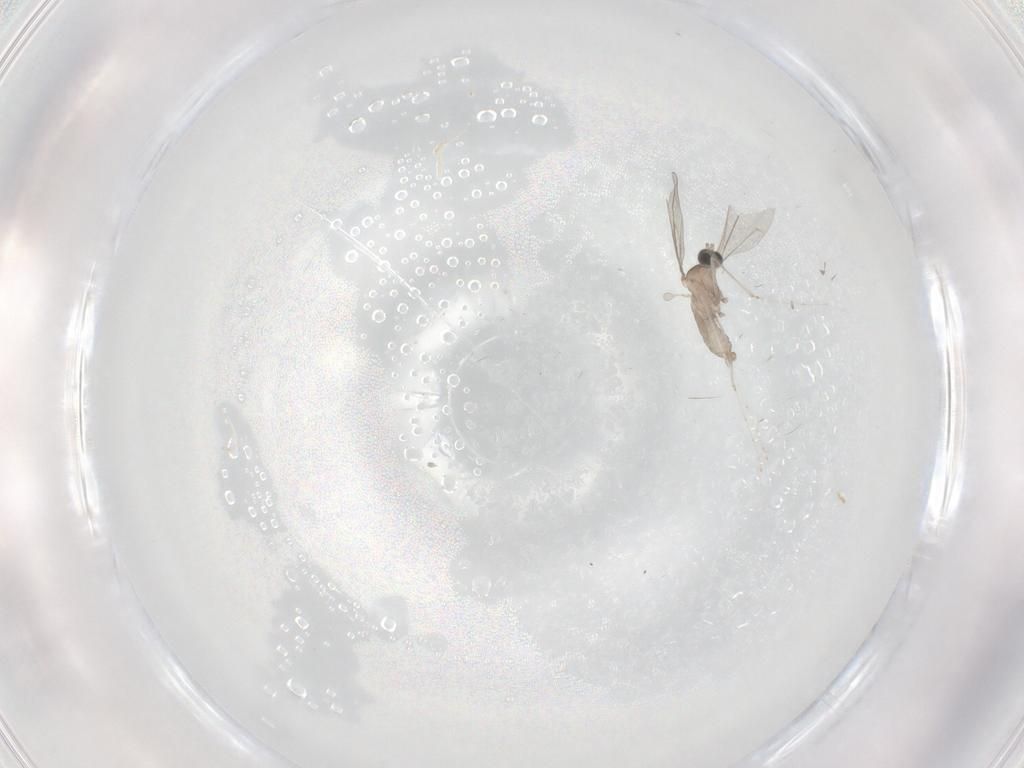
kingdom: Animalia
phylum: Arthropoda
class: Insecta
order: Diptera
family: Cecidomyiidae
